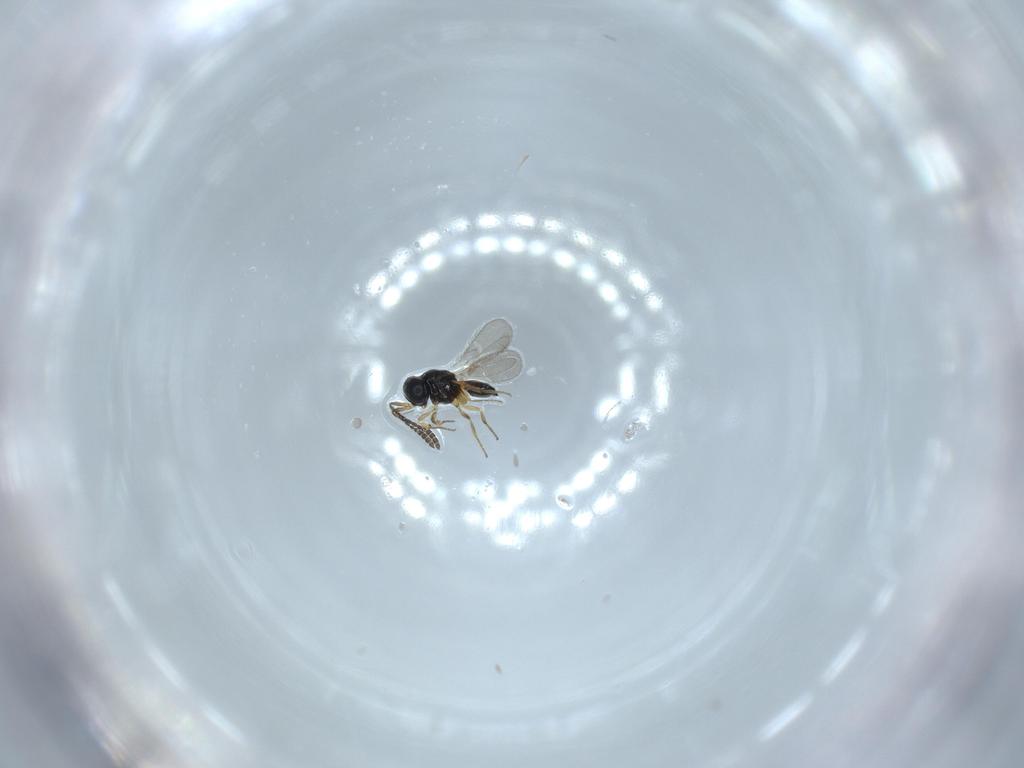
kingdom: Animalia
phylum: Arthropoda
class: Insecta
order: Hymenoptera
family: Scelionidae
